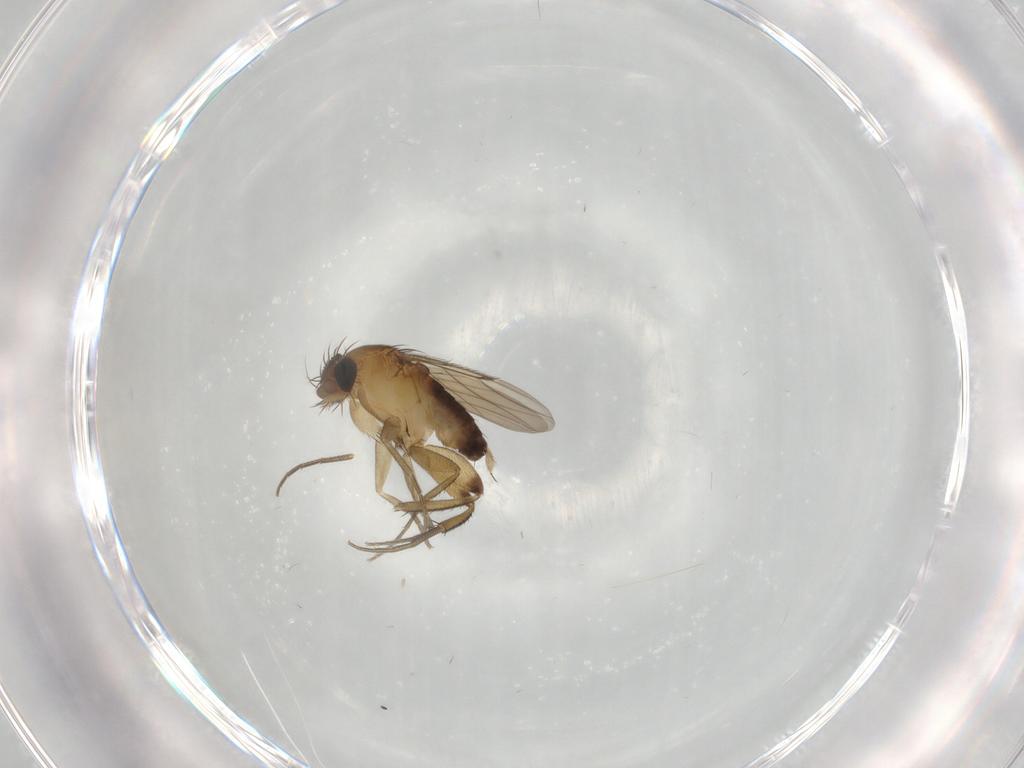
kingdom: Animalia
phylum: Arthropoda
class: Insecta
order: Diptera
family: Phoridae
